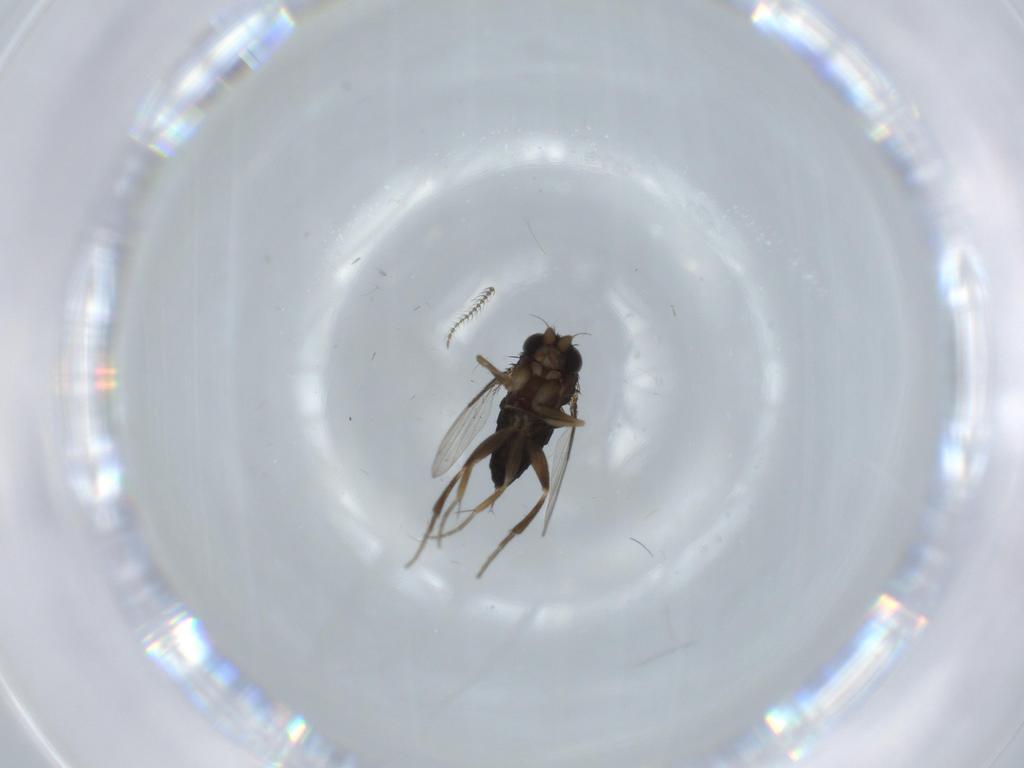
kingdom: Animalia
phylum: Arthropoda
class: Insecta
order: Diptera
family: Phoridae
